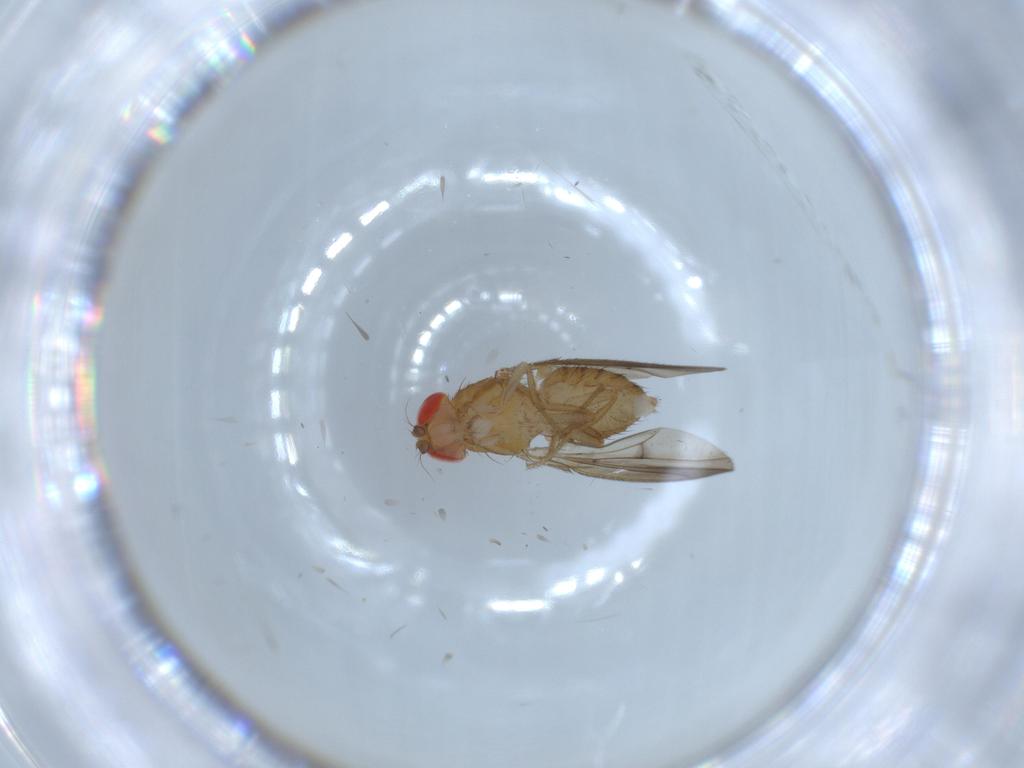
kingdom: Animalia
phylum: Arthropoda
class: Insecta
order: Diptera
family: Drosophilidae
